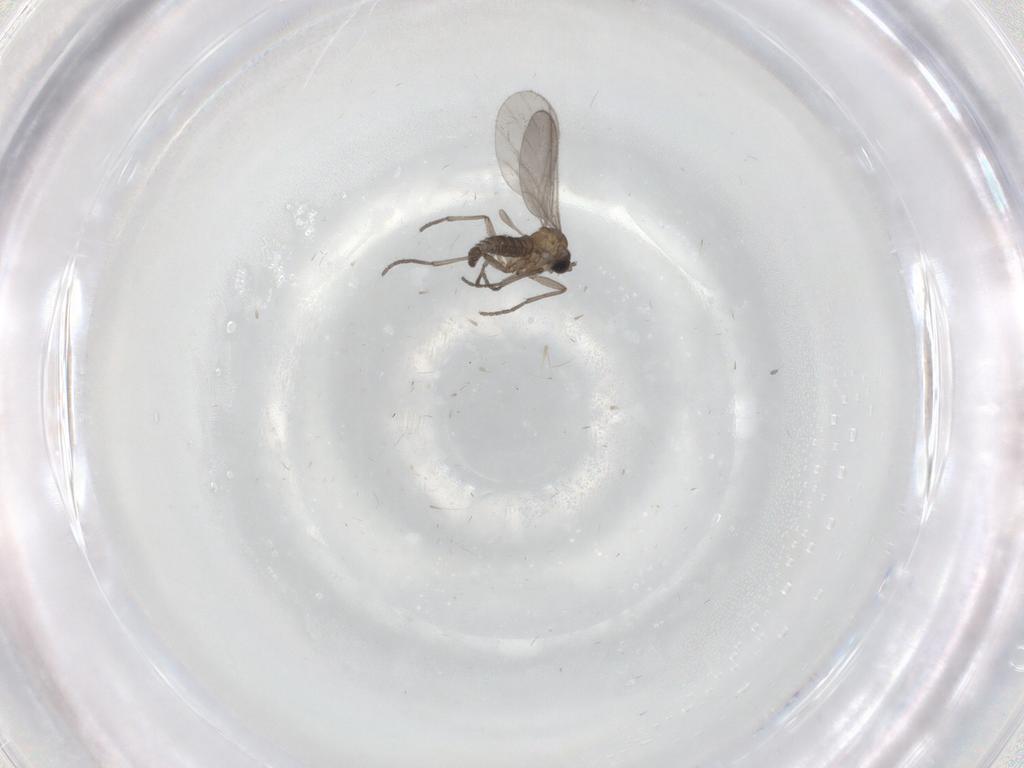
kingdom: Animalia
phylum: Arthropoda
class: Insecta
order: Diptera
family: Sciaridae
